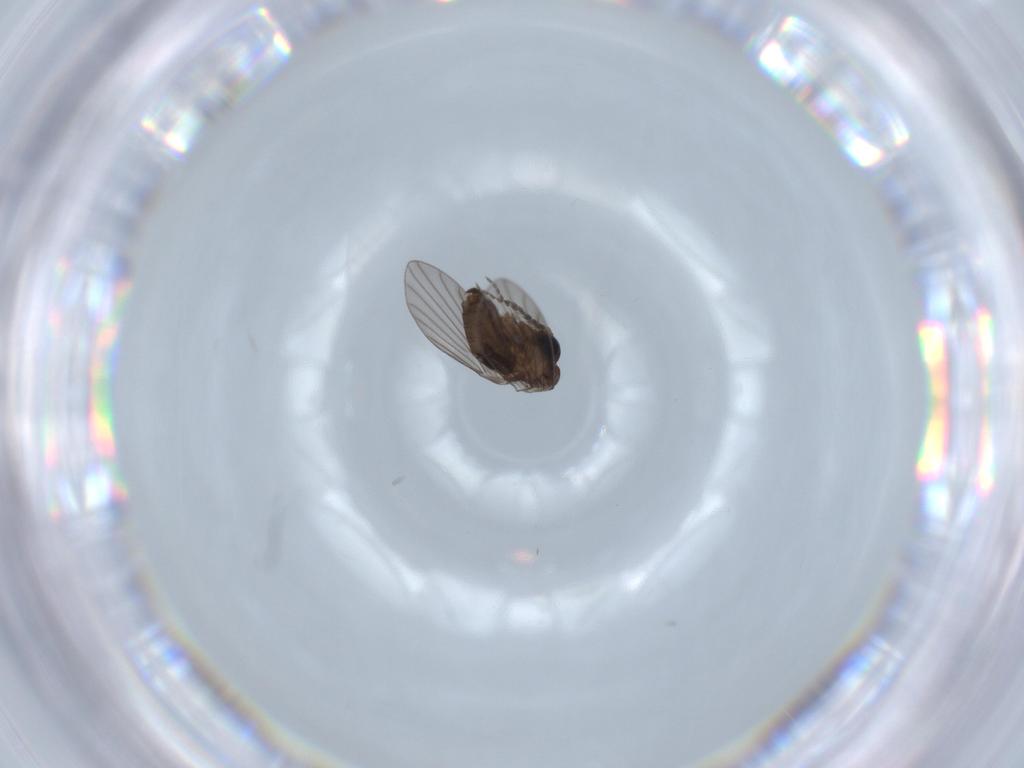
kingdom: Animalia
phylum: Arthropoda
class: Insecta
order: Diptera
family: Psychodidae
